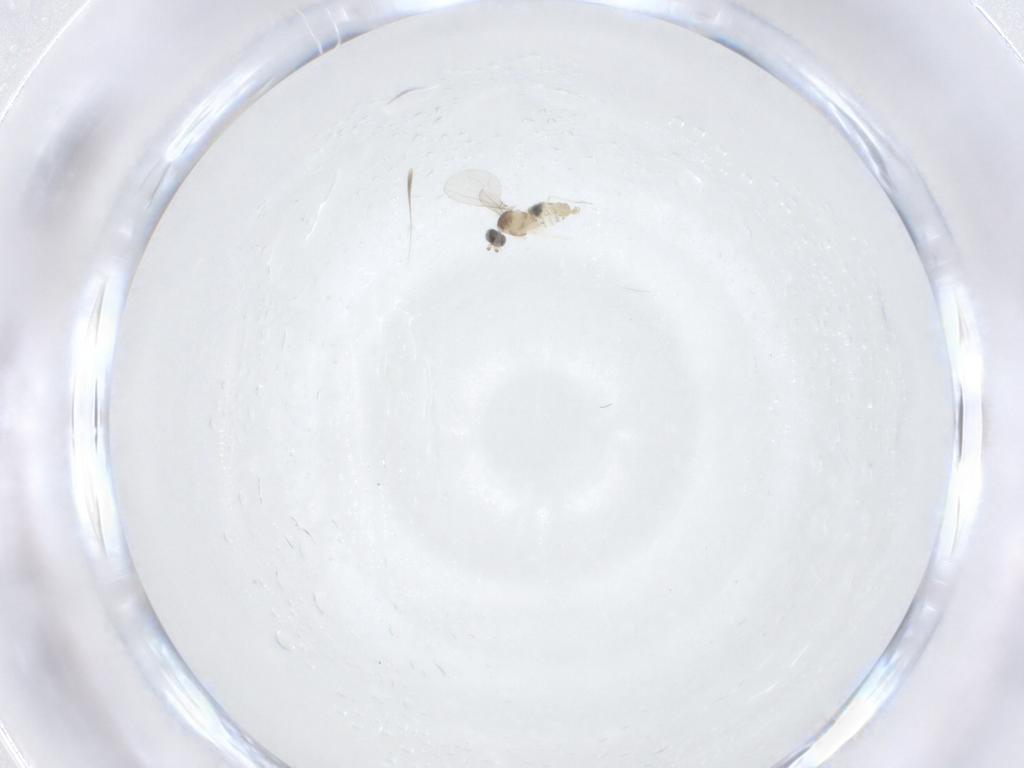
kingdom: Animalia
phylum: Arthropoda
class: Insecta
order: Diptera
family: Cecidomyiidae
